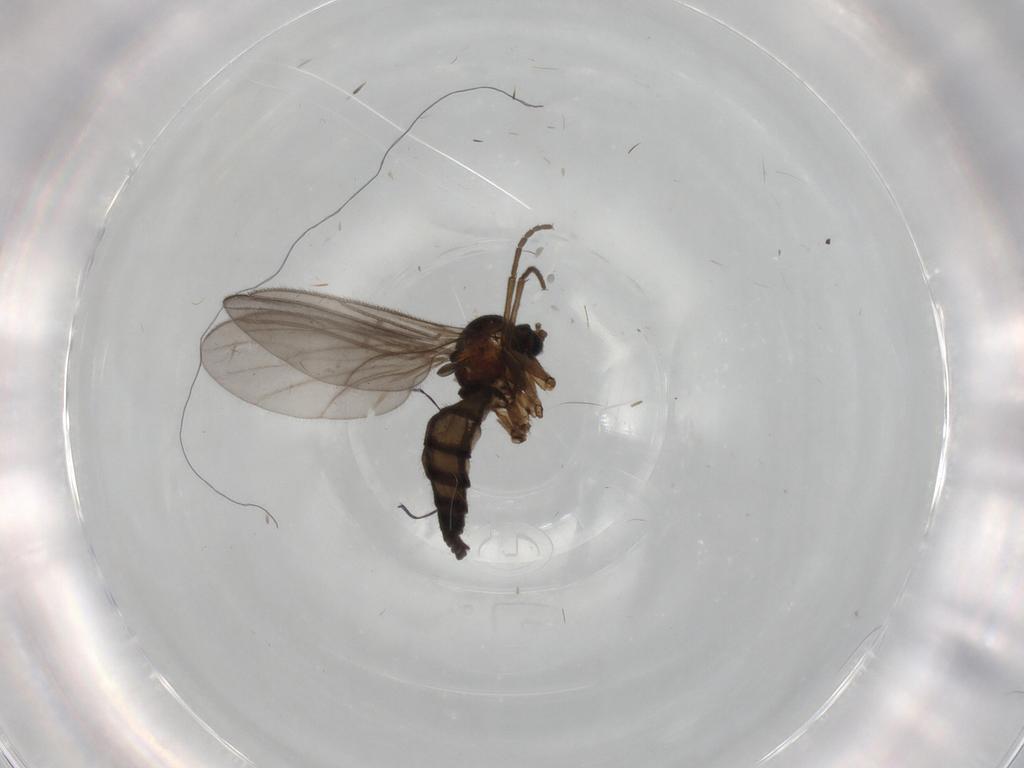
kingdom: Animalia
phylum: Arthropoda
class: Insecta
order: Diptera
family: Sciaridae
